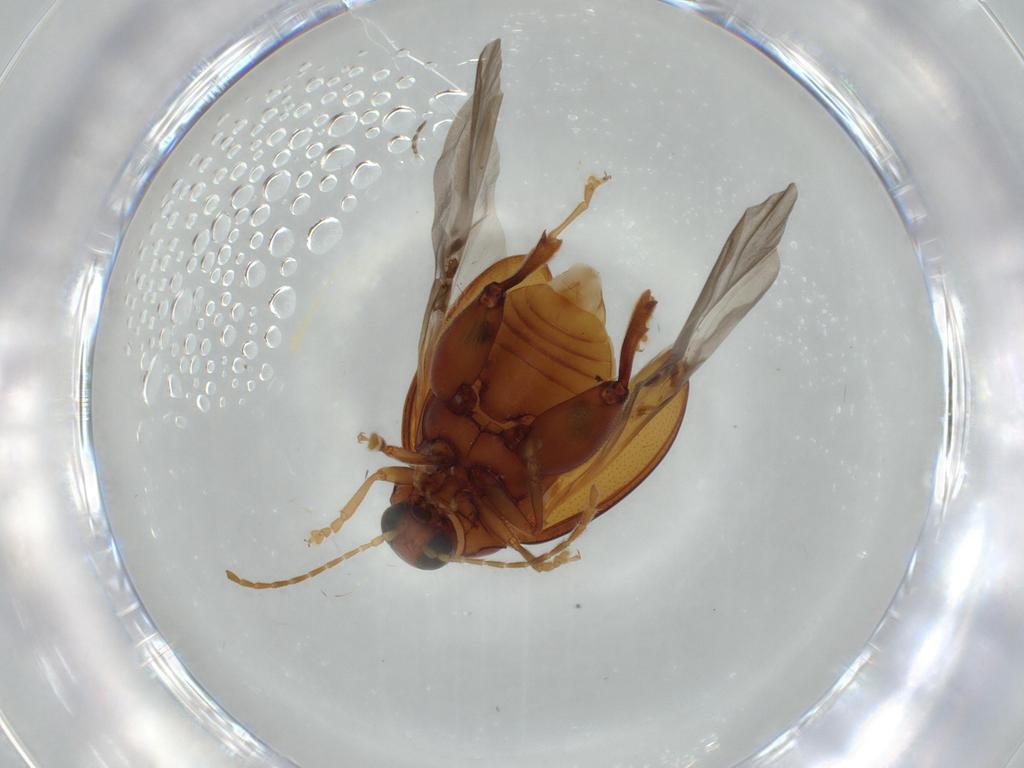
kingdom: Animalia
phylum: Arthropoda
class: Insecta
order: Coleoptera
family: Chrysomelidae
